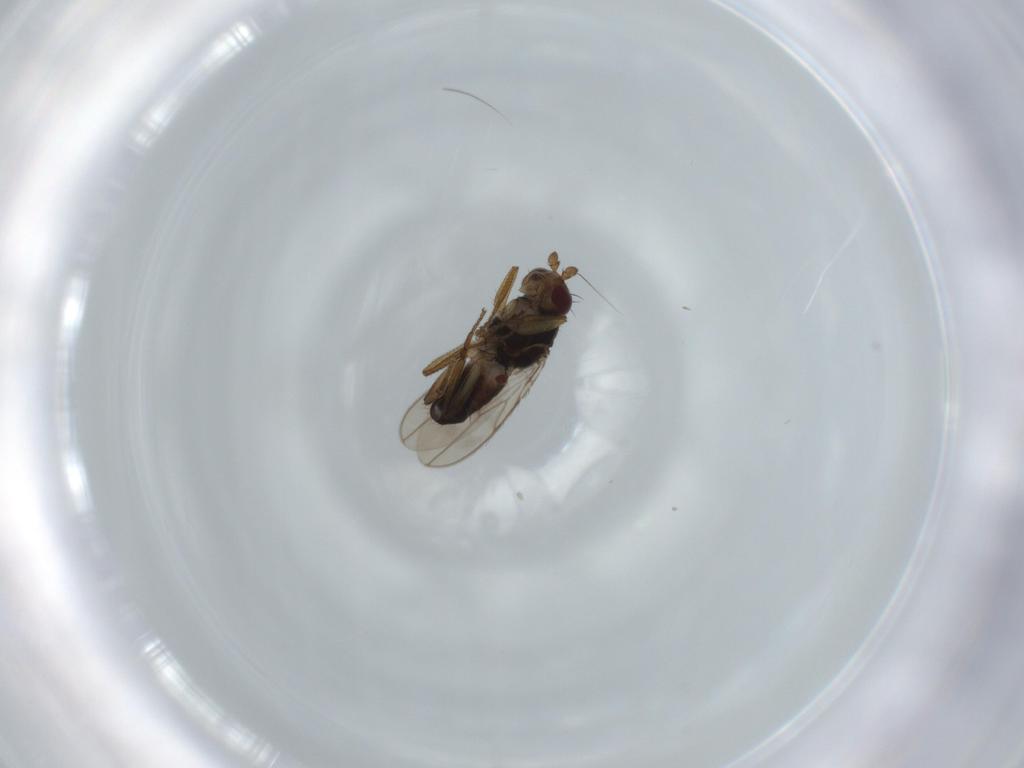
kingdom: Animalia
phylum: Arthropoda
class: Insecta
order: Diptera
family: Sphaeroceridae
